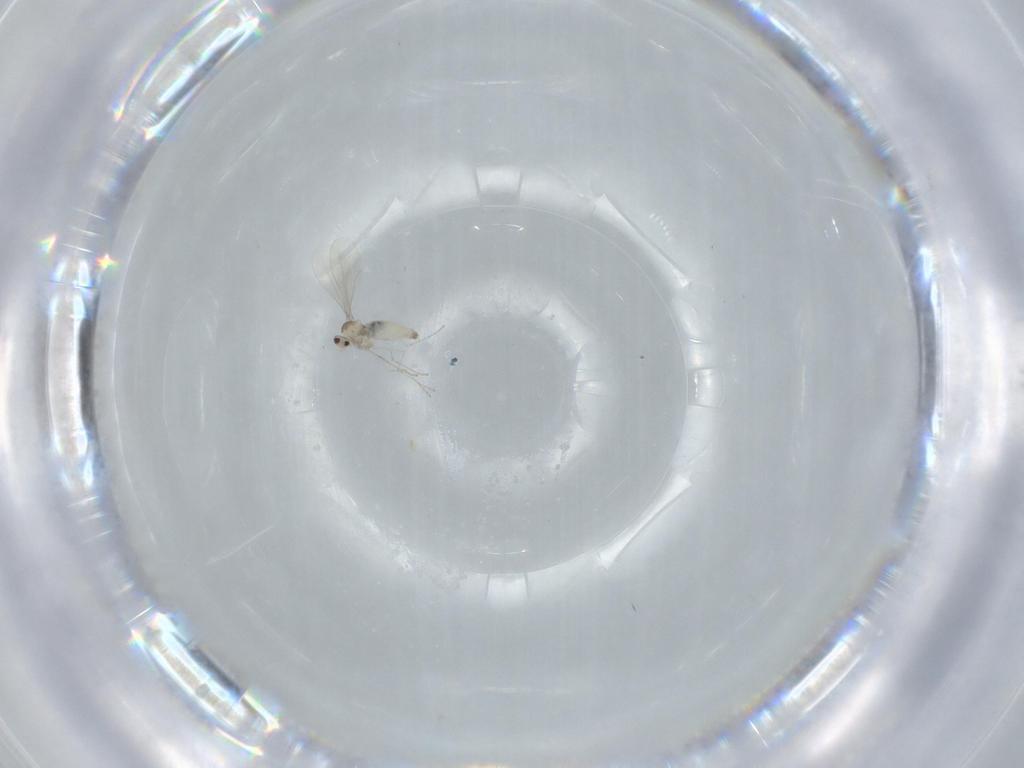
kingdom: Animalia
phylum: Arthropoda
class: Insecta
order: Diptera
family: Cecidomyiidae
